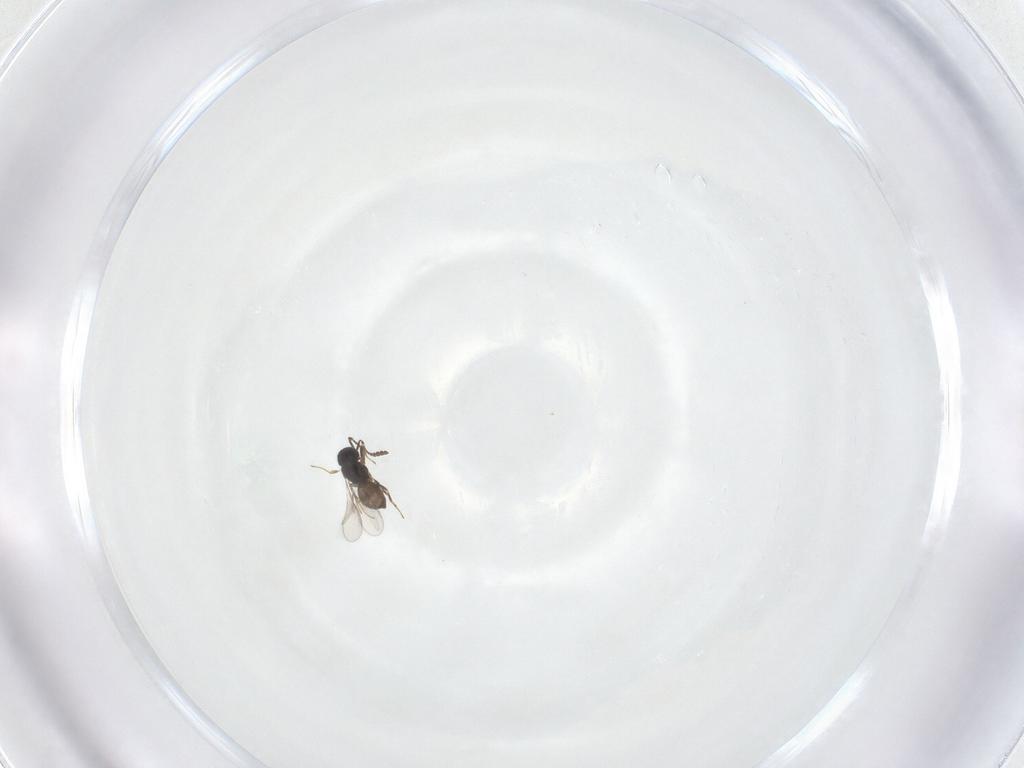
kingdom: Animalia
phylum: Arthropoda
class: Insecta
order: Hymenoptera
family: Scelionidae
